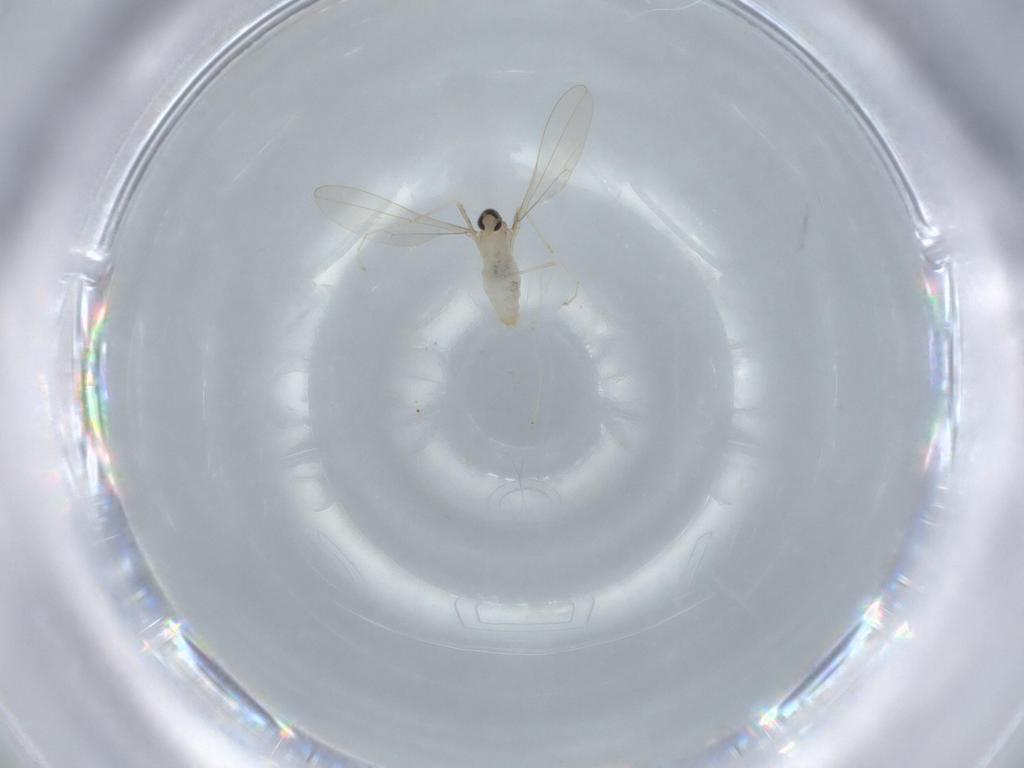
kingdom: Animalia
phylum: Arthropoda
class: Insecta
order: Diptera
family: Cecidomyiidae
